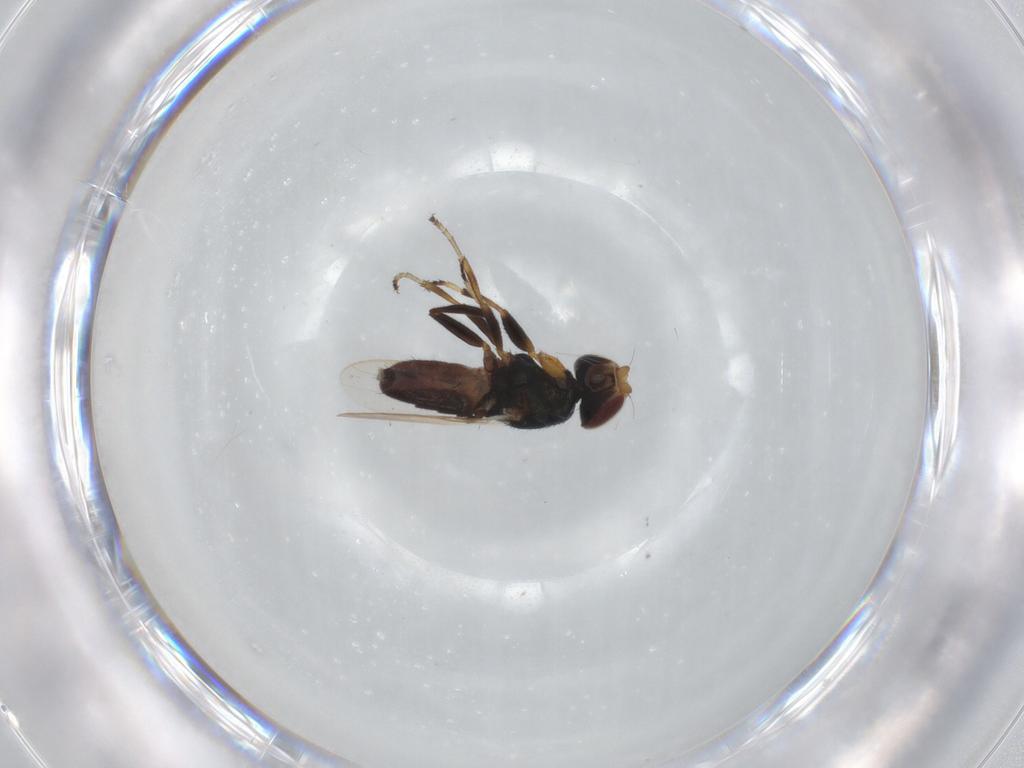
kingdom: Animalia
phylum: Arthropoda
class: Insecta
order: Diptera
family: Chloropidae
